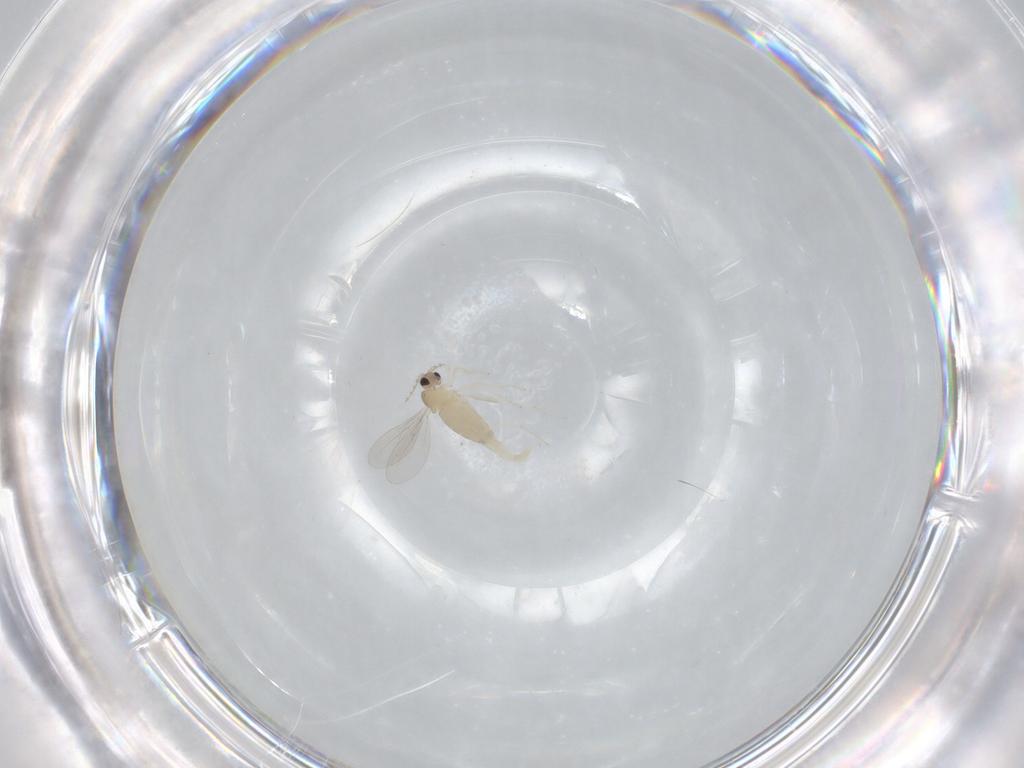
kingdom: Animalia
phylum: Arthropoda
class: Insecta
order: Diptera
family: Cecidomyiidae
